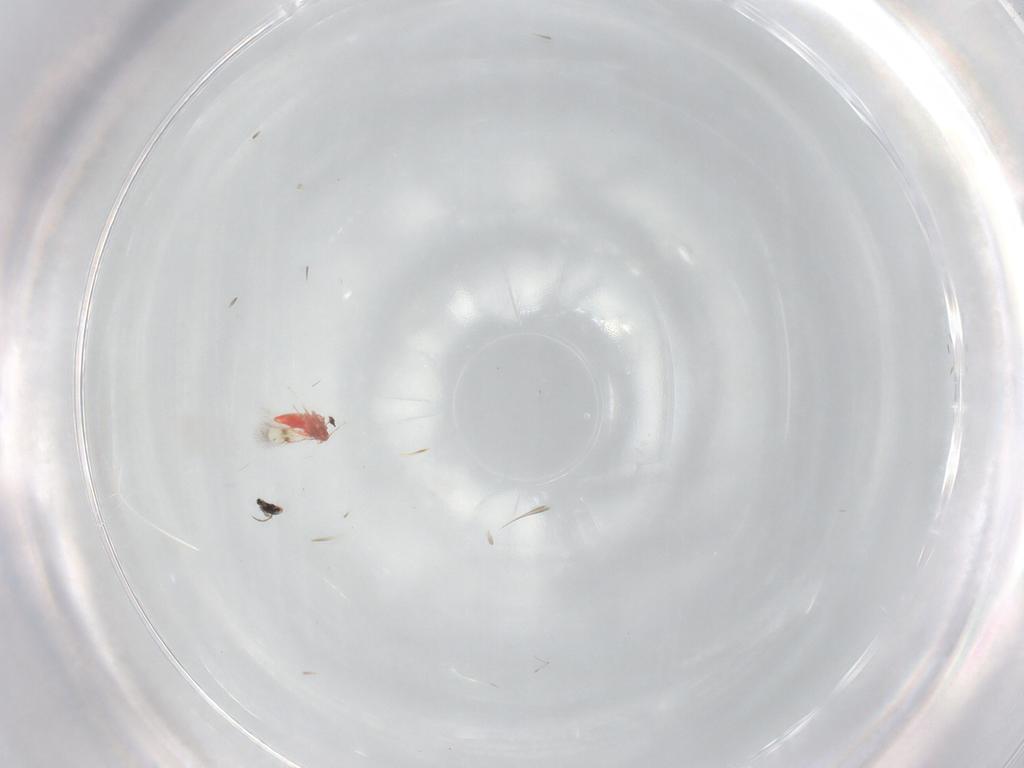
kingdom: Animalia
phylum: Arthropoda
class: Insecta
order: Hymenoptera
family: Trichogrammatidae
